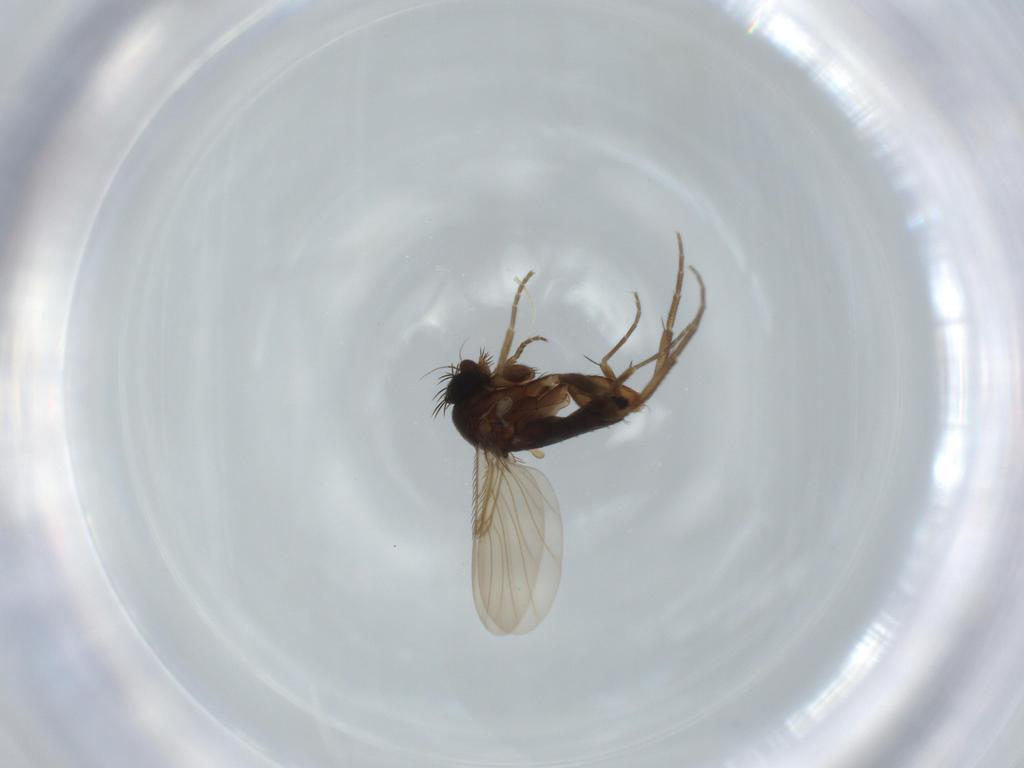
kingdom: Animalia
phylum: Arthropoda
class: Insecta
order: Diptera
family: Phoridae
